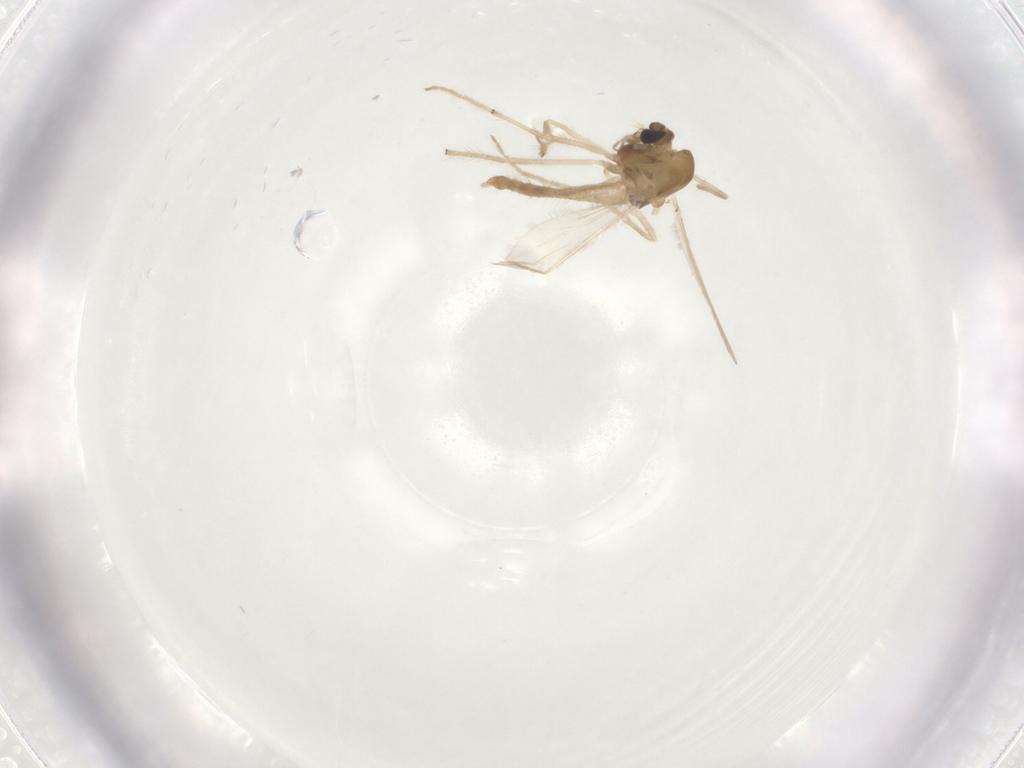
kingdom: Animalia
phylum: Arthropoda
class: Insecta
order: Diptera
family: Chironomidae
